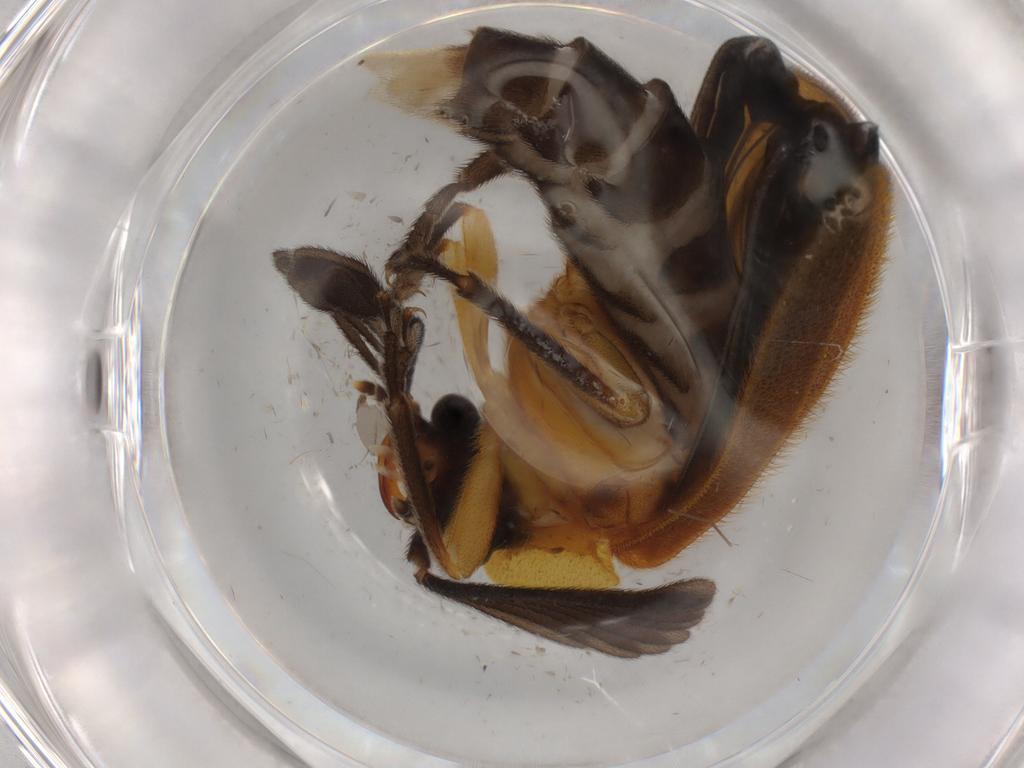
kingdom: Animalia
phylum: Arthropoda
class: Insecta
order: Coleoptera
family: Lampyridae
